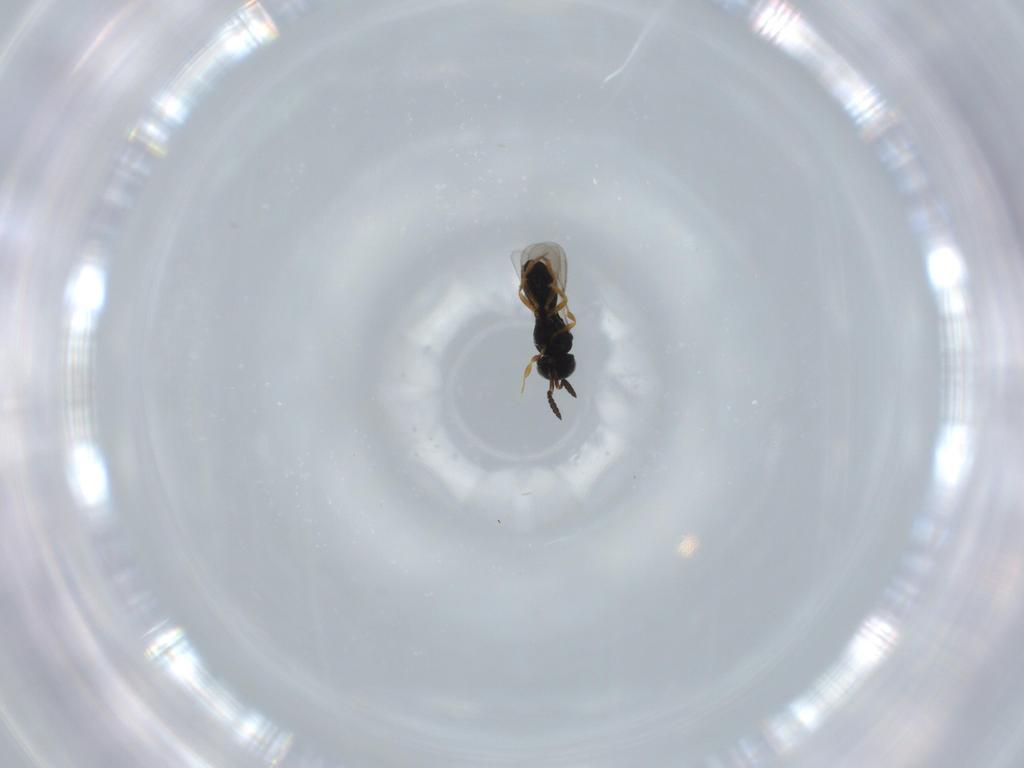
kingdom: Animalia
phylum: Arthropoda
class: Insecta
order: Hymenoptera
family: Scelionidae
